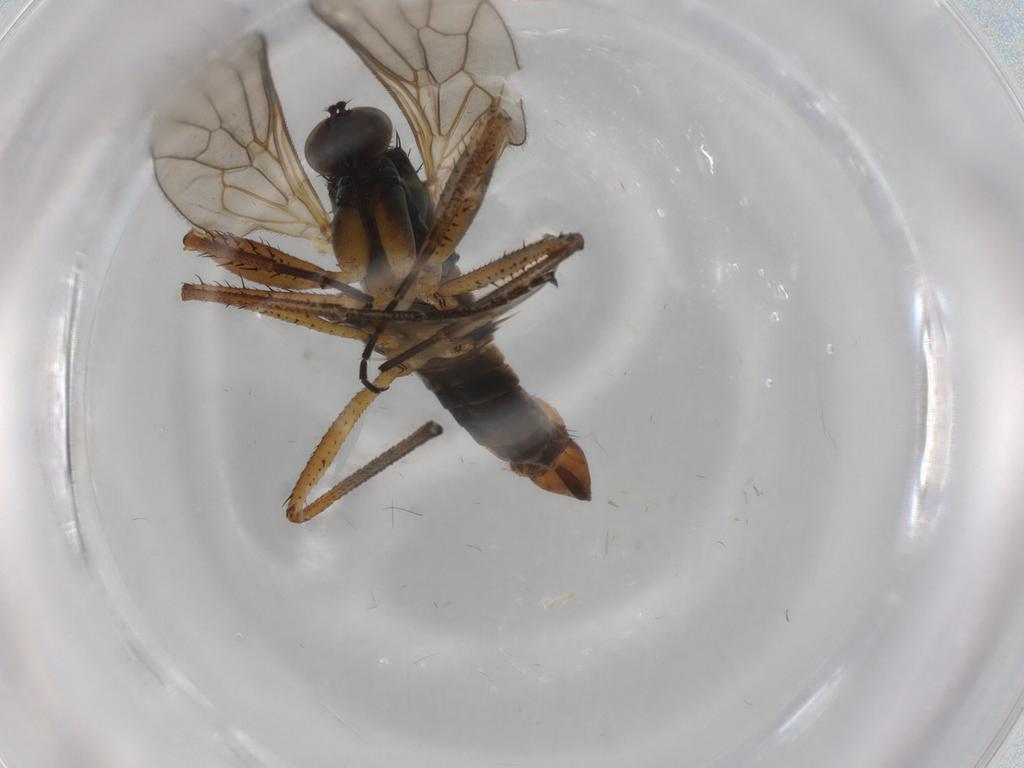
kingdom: Animalia
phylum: Arthropoda
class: Insecta
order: Diptera
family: Empididae
